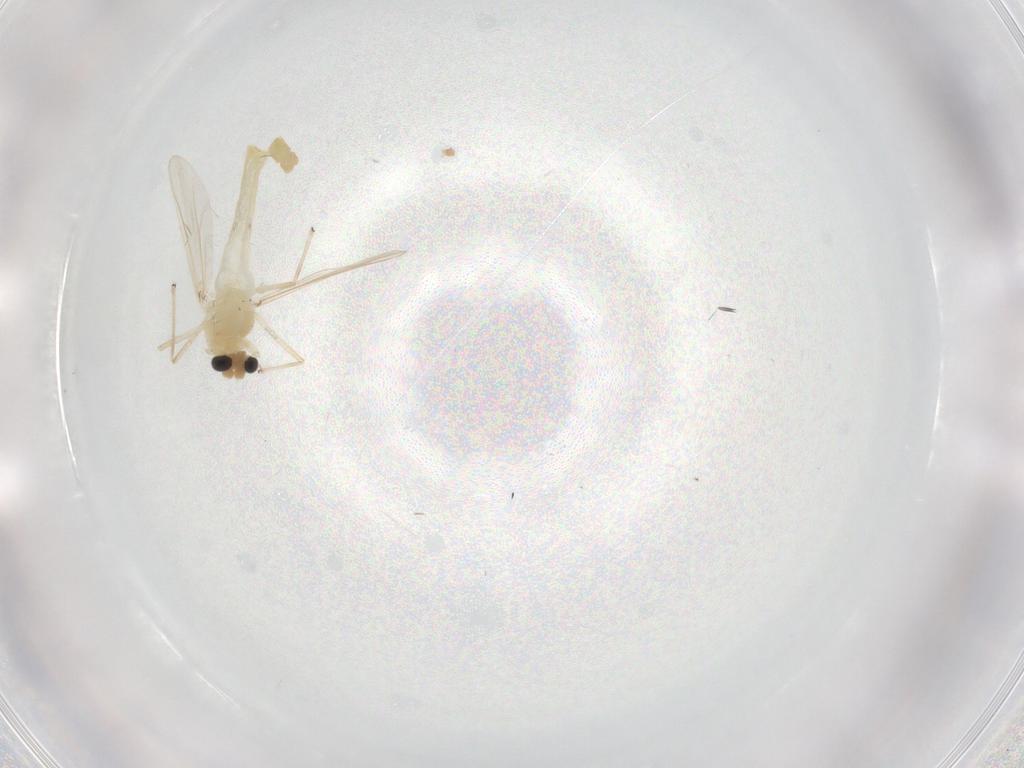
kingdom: Animalia
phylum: Arthropoda
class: Insecta
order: Diptera
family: Chironomidae
